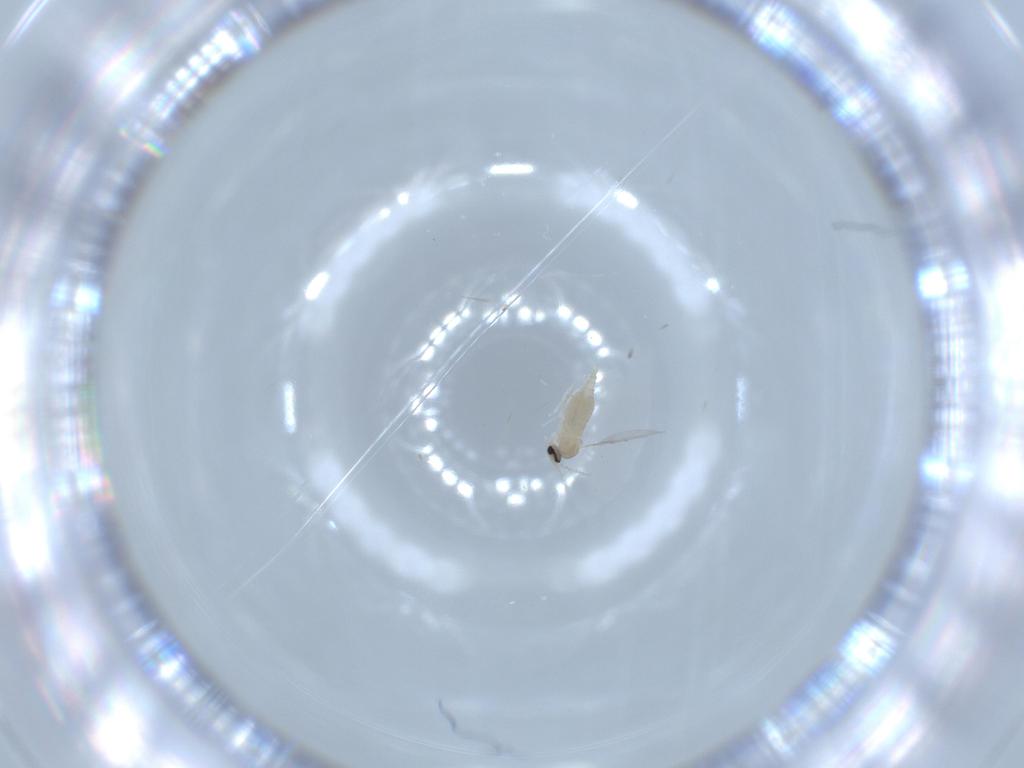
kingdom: Animalia
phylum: Arthropoda
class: Insecta
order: Diptera
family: Cecidomyiidae
